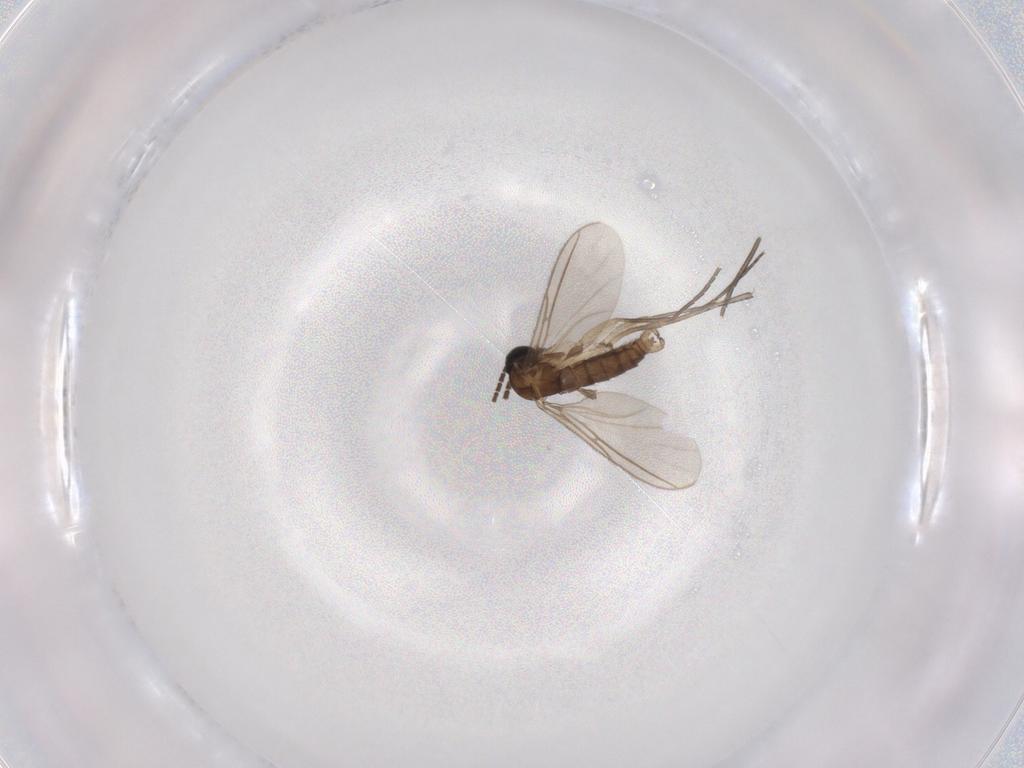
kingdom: Animalia
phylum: Arthropoda
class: Insecta
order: Diptera
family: Sciaridae
